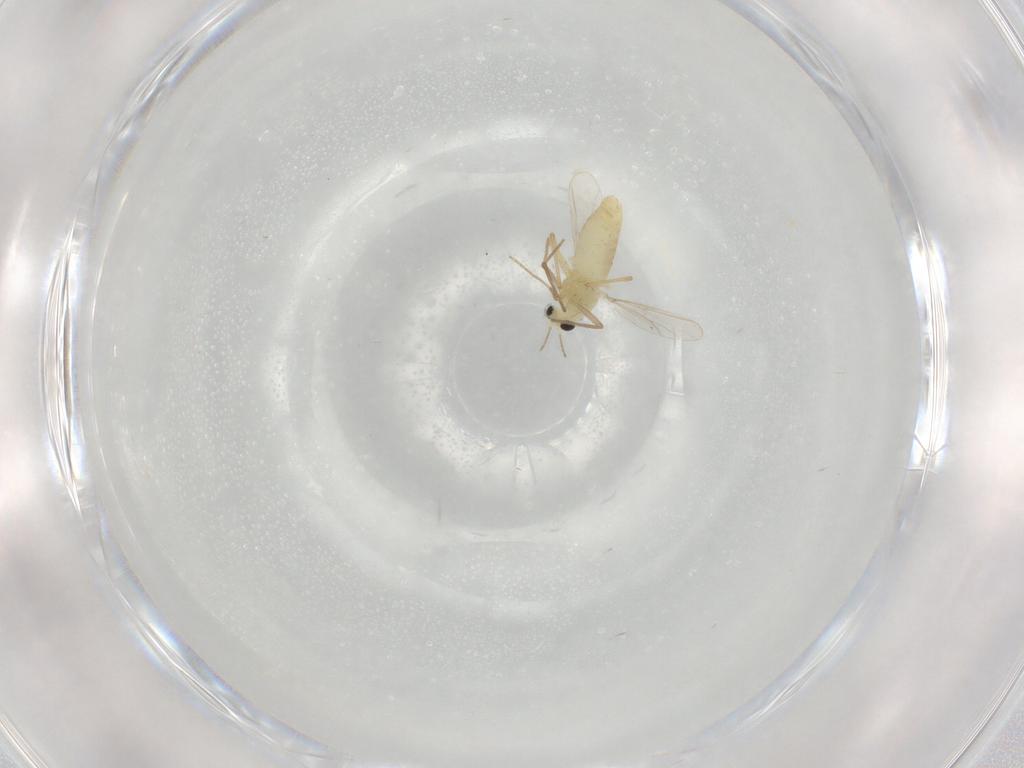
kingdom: Animalia
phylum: Arthropoda
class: Insecta
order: Diptera
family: Chironomidae
